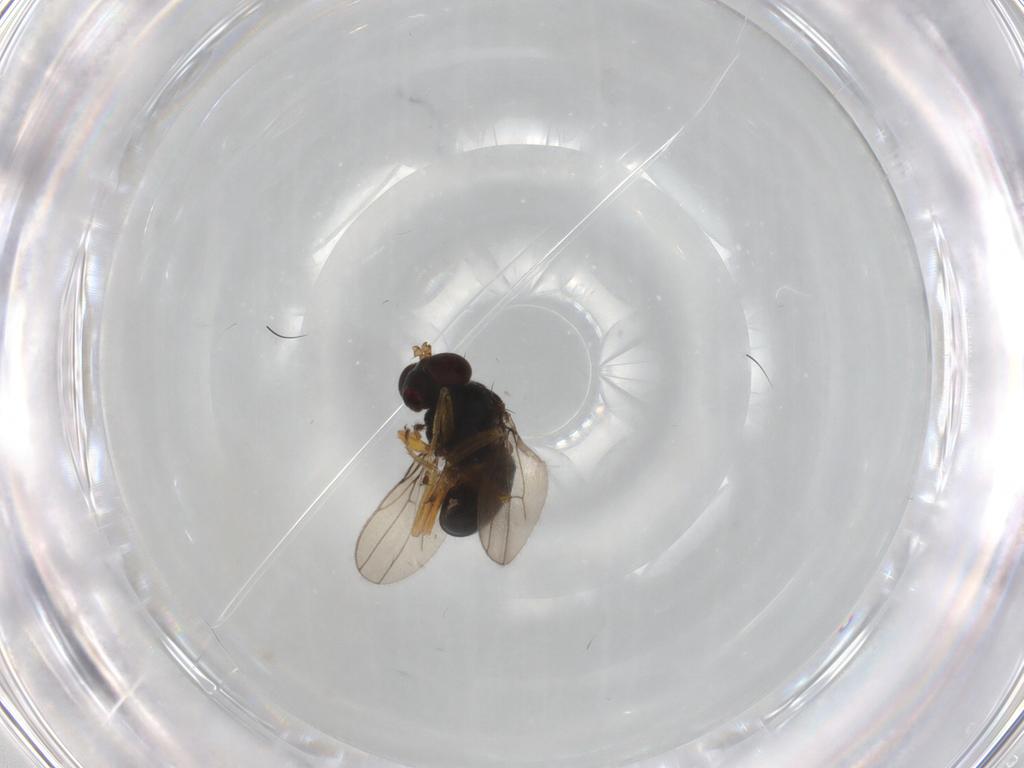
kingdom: Animalia
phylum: Arthropoda
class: Insecta
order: Diptera
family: Ephydridae
